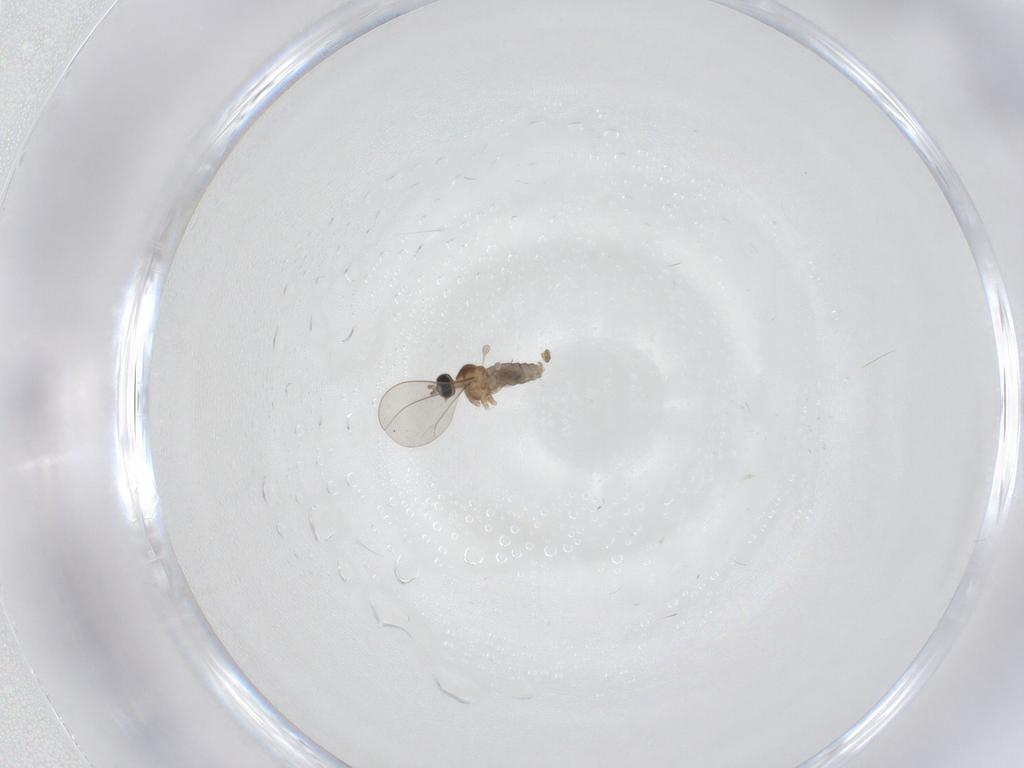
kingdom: Animalia
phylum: Arthropoda
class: Insecta
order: Diptera
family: Cecidomyiidae
